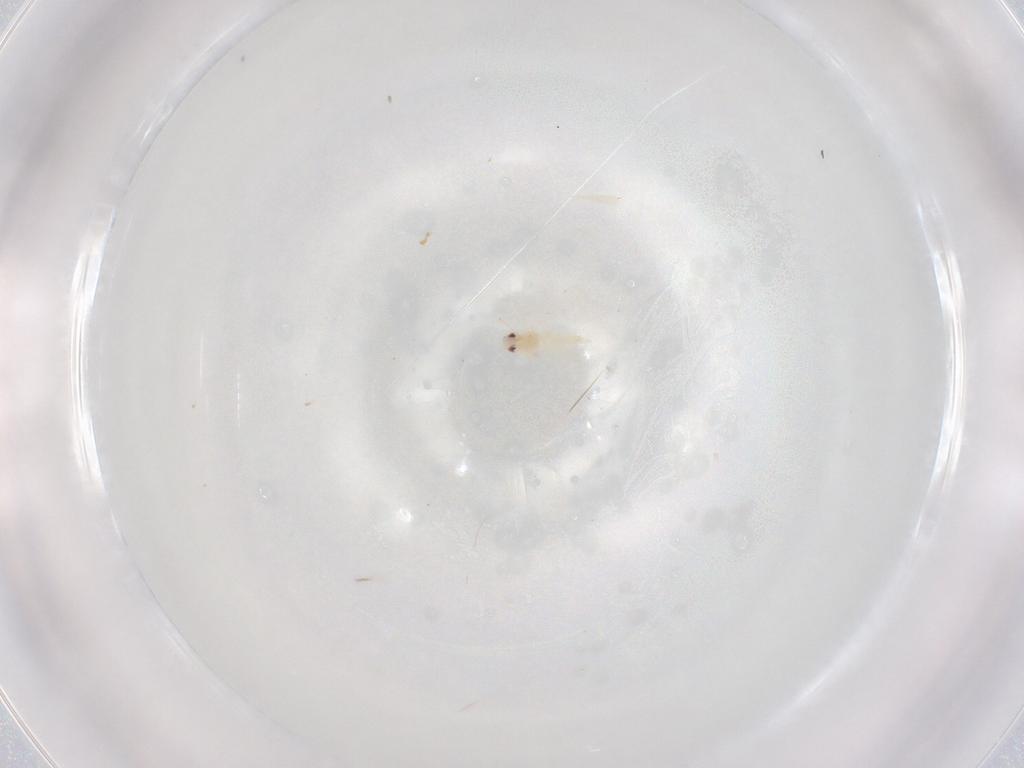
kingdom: Animalia
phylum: Arthropoda
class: Insecta
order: Hemiptera
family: Aleyrodidae
